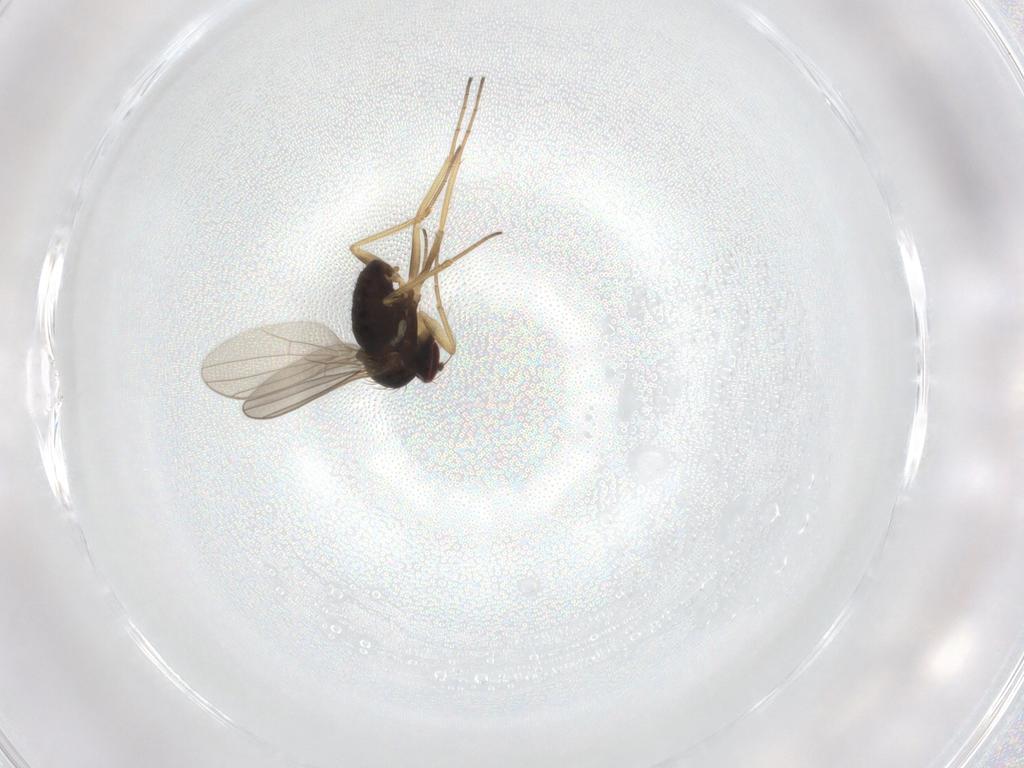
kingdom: Animalia
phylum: Arthropoda
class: Insecta
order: Diptera
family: Dolichopodidae
